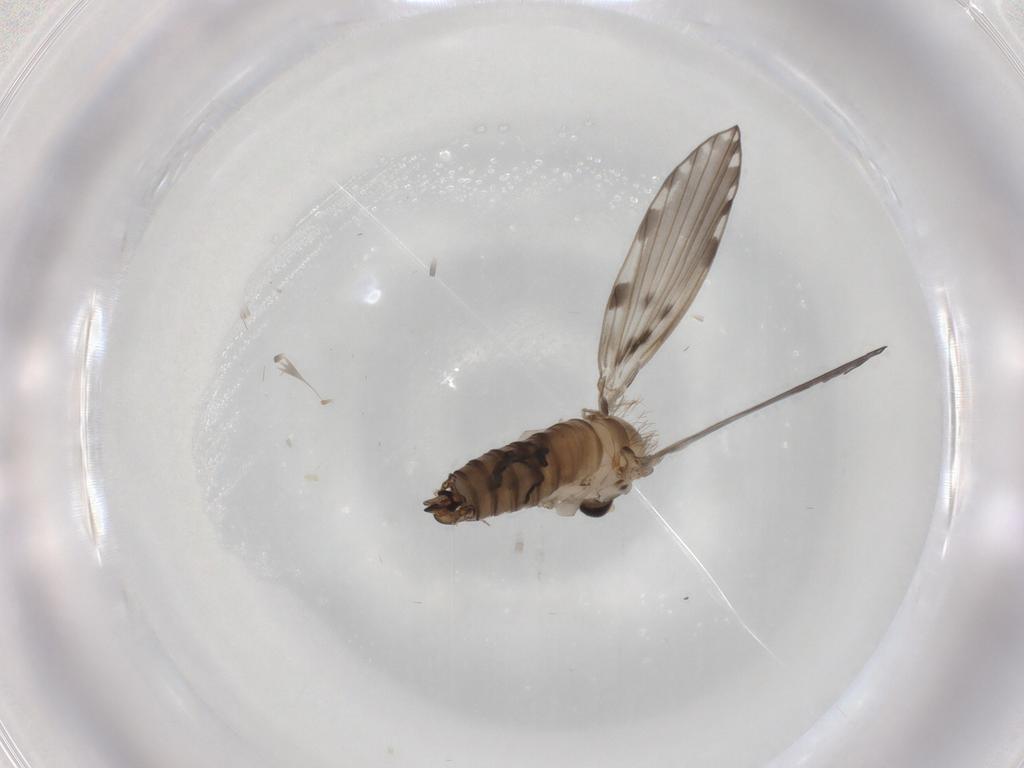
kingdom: Animalia
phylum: Arthropoda
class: Insecta
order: Diptera
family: Psychodidae
